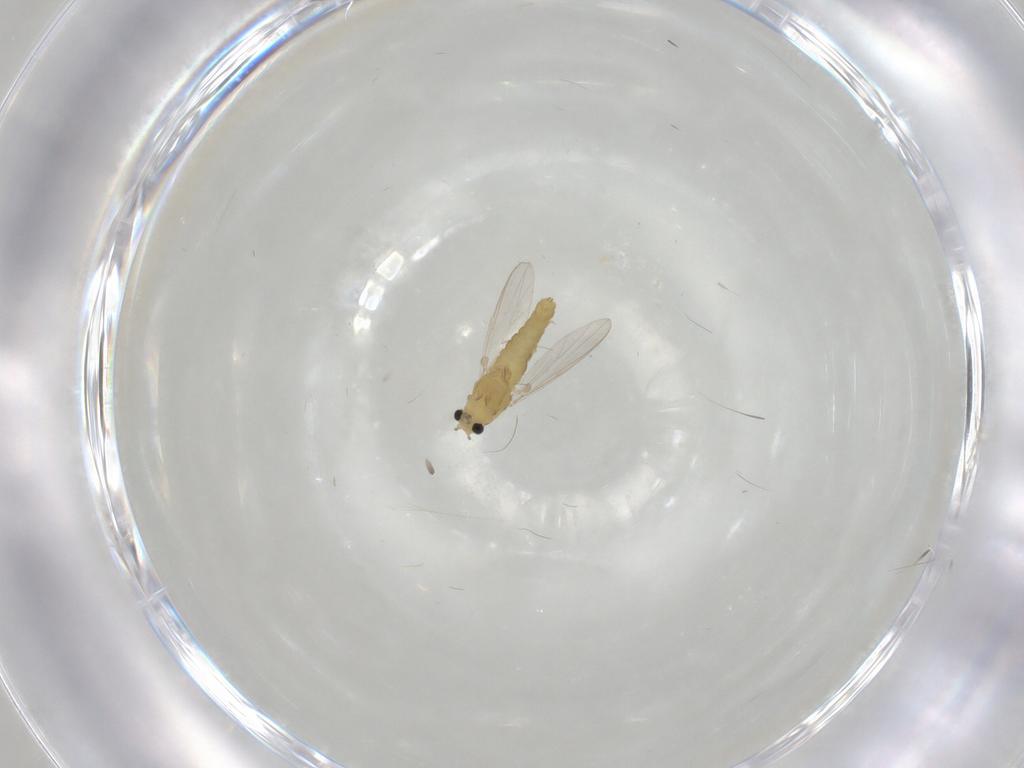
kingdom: Animalia
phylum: Arthropoda
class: Insecta
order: Diptera
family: Chironomidae
